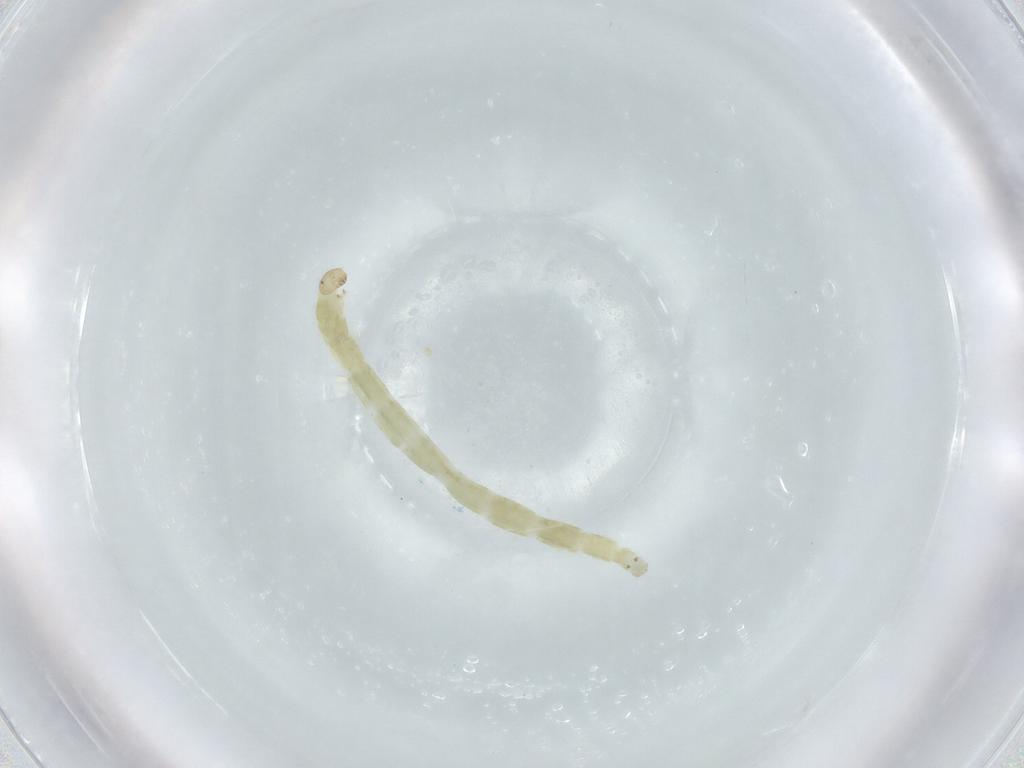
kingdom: Animalia
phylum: Arthropoda
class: Insecta
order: Diptera
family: Chironomidae
